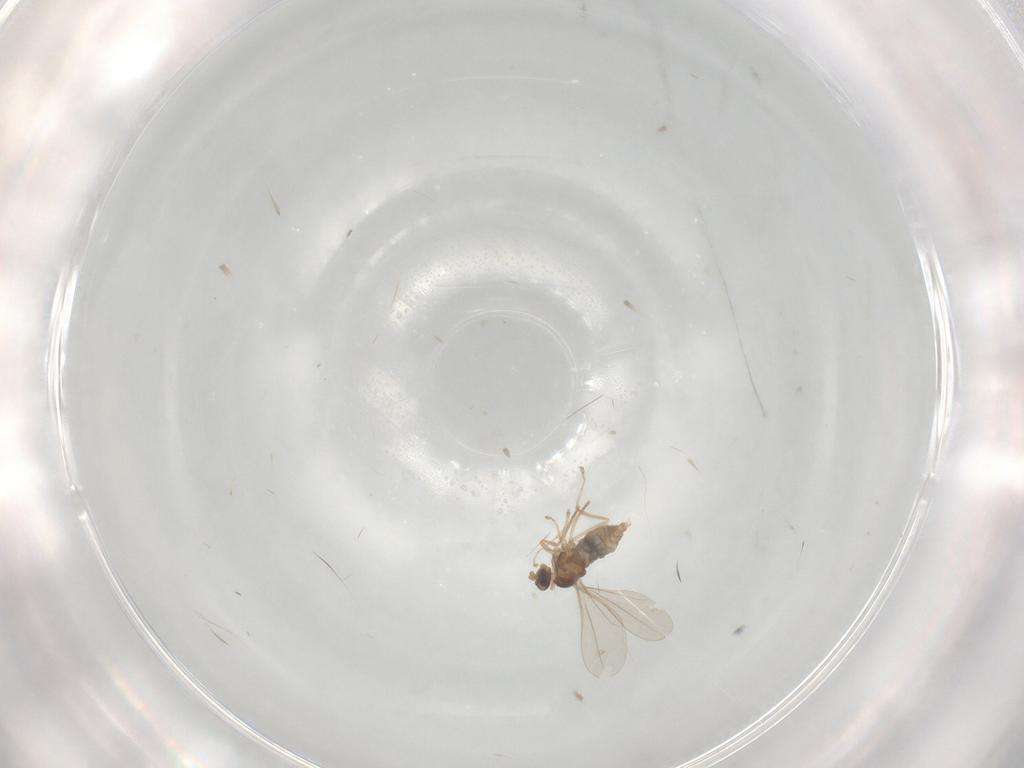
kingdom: Animalia
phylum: Arthropoda
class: Insecta
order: Diptera
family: Cecidomyiidae
